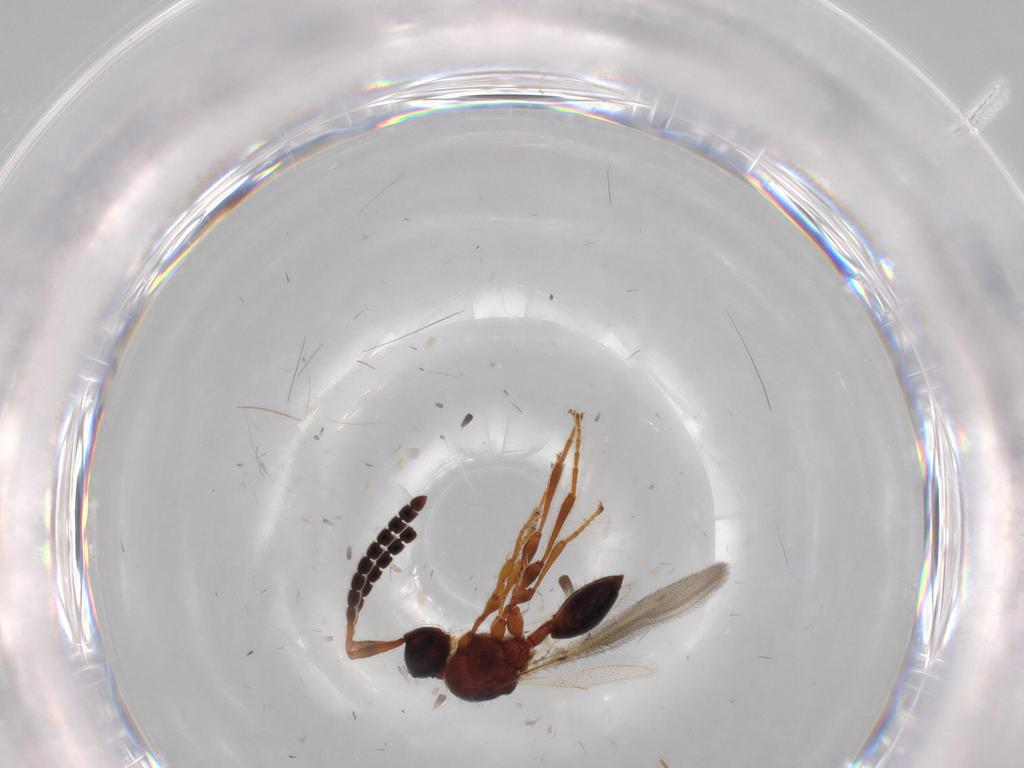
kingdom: Animalia
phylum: Arthropoda
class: Insecta
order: Hymenoptera
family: Diapriidae
